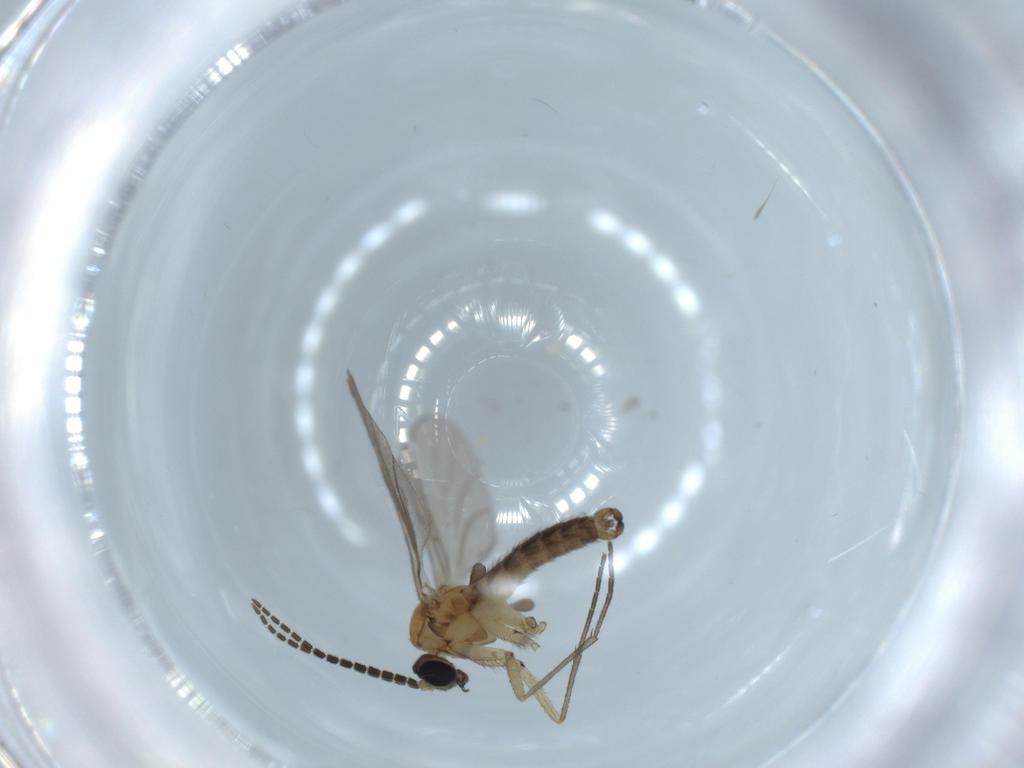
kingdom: Animalia
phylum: Arthropoda
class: Insecta
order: Diptera
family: Sciaridae
